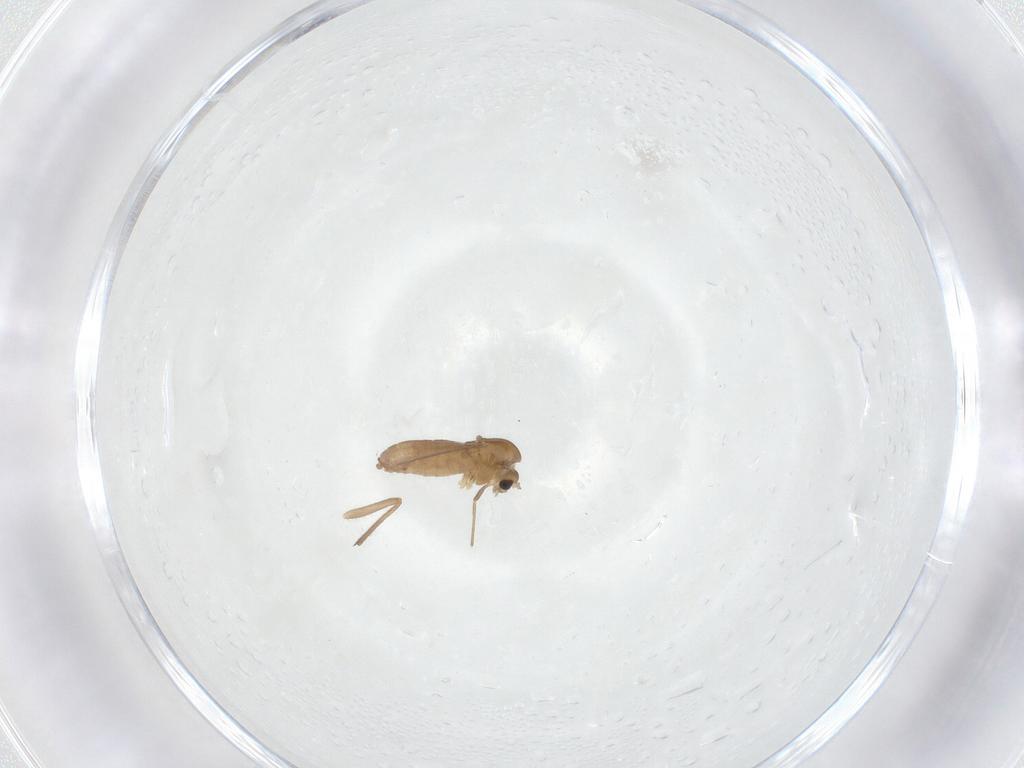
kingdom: Animalia
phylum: Arthropoda
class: Insecta
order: Diptera
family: Chironomidae
